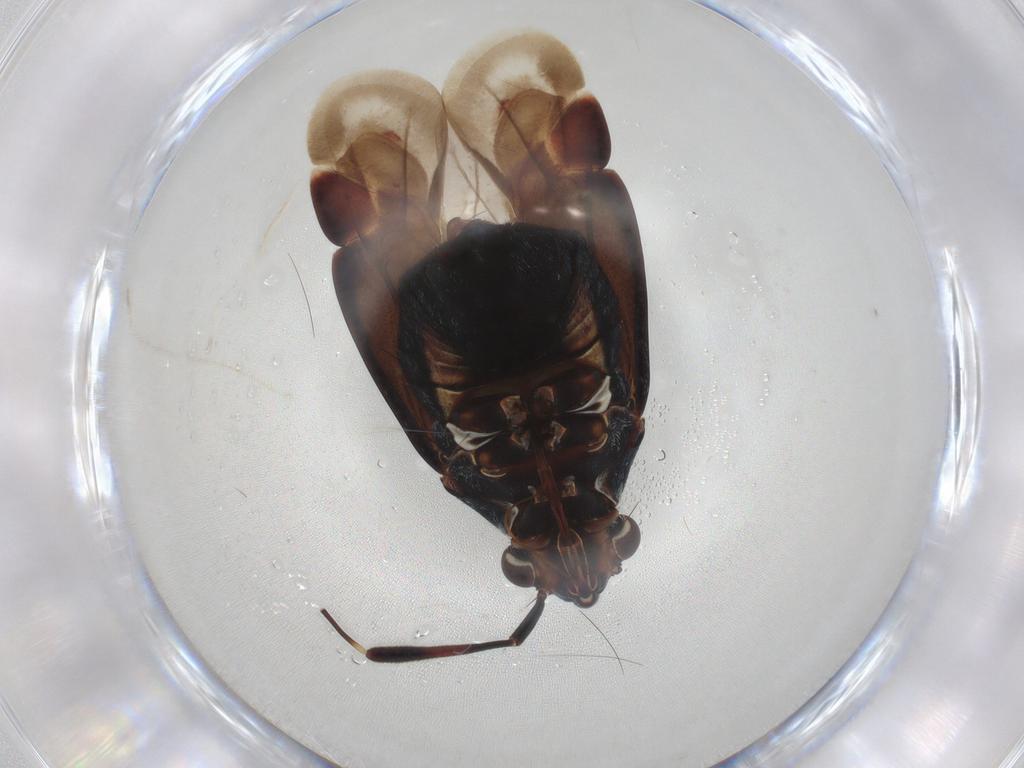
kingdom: Animalia
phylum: Arthropoda
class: Insecta
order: Hemiptera
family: Miridae
